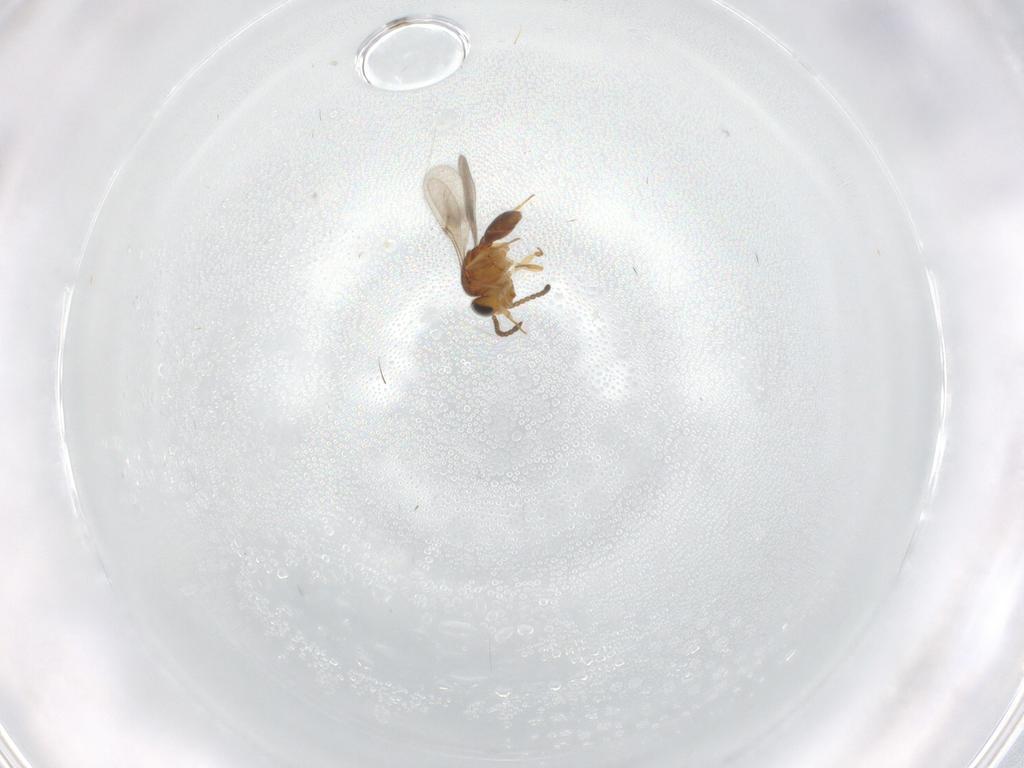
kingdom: Animalia
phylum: Arthropoda
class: Insecta
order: Hymenoptera
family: Scelionidae
